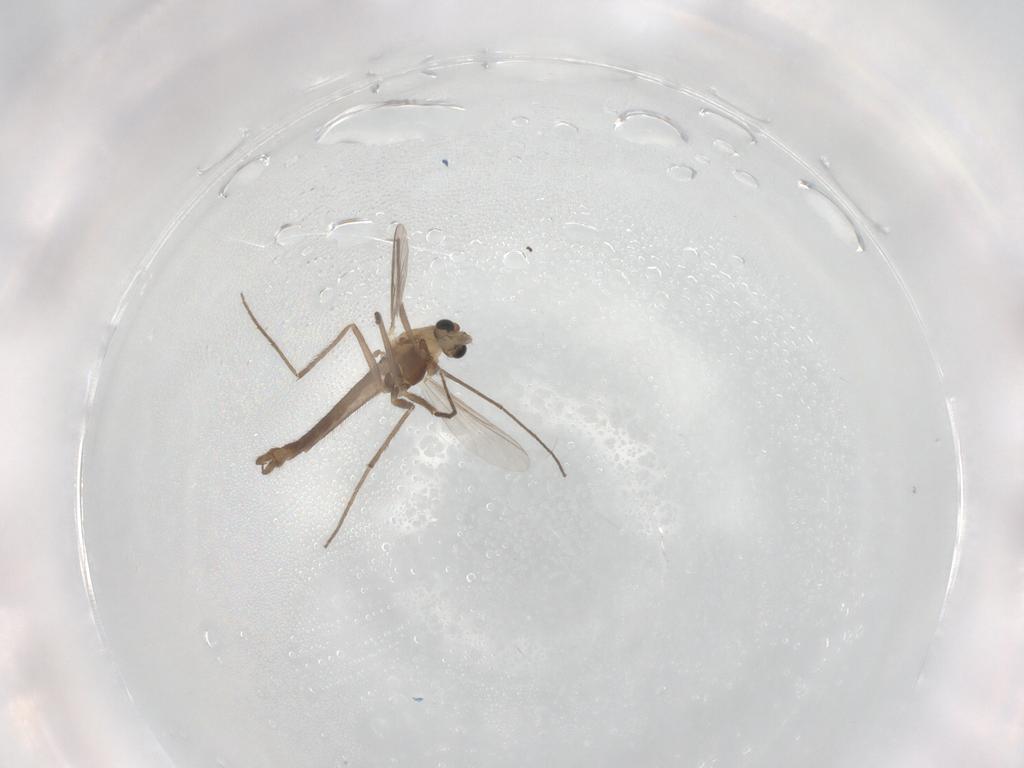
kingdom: Animalia
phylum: Arthropoda
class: Insecta
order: Diptera
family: Chironomidae
